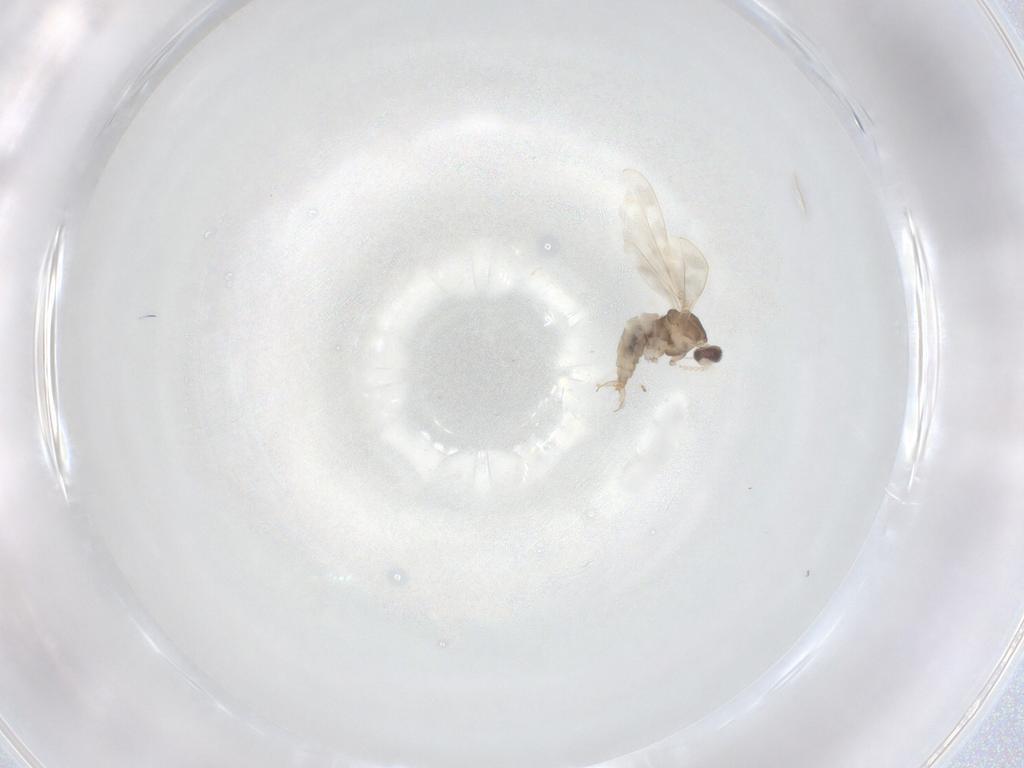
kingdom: Animalia
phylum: Arthropoda
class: Insecta
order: Diptera
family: Cecidomyiidae
